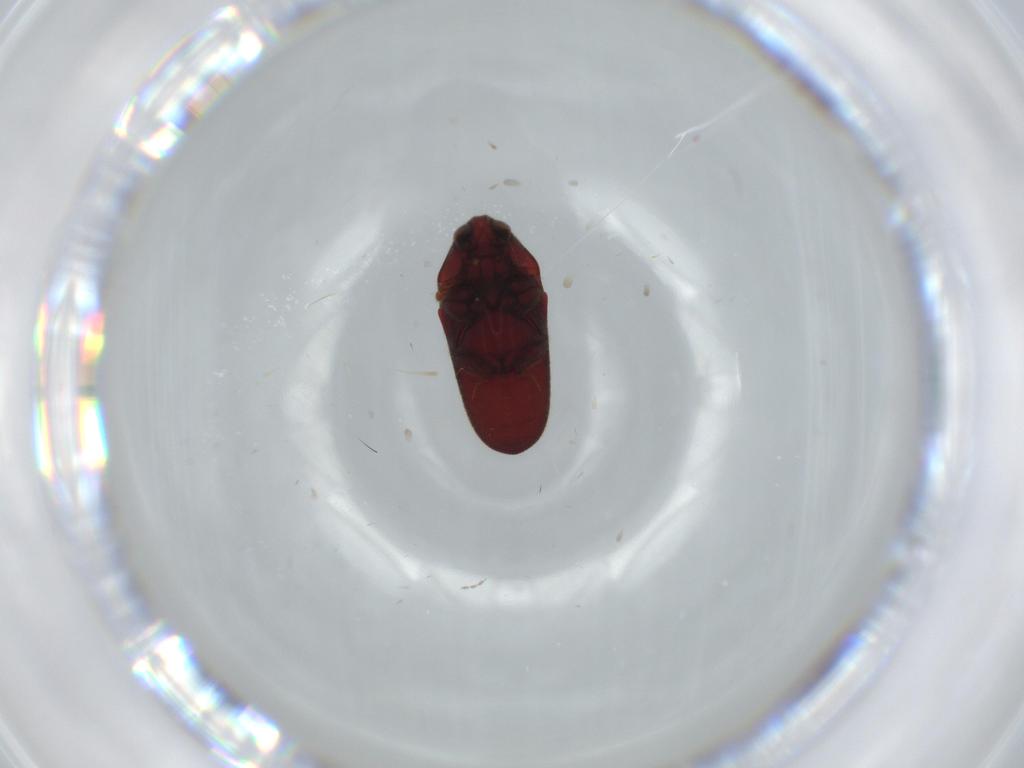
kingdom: Animalia
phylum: Arthropoda
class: Insecta
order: Coleoptera
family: Throscidae
